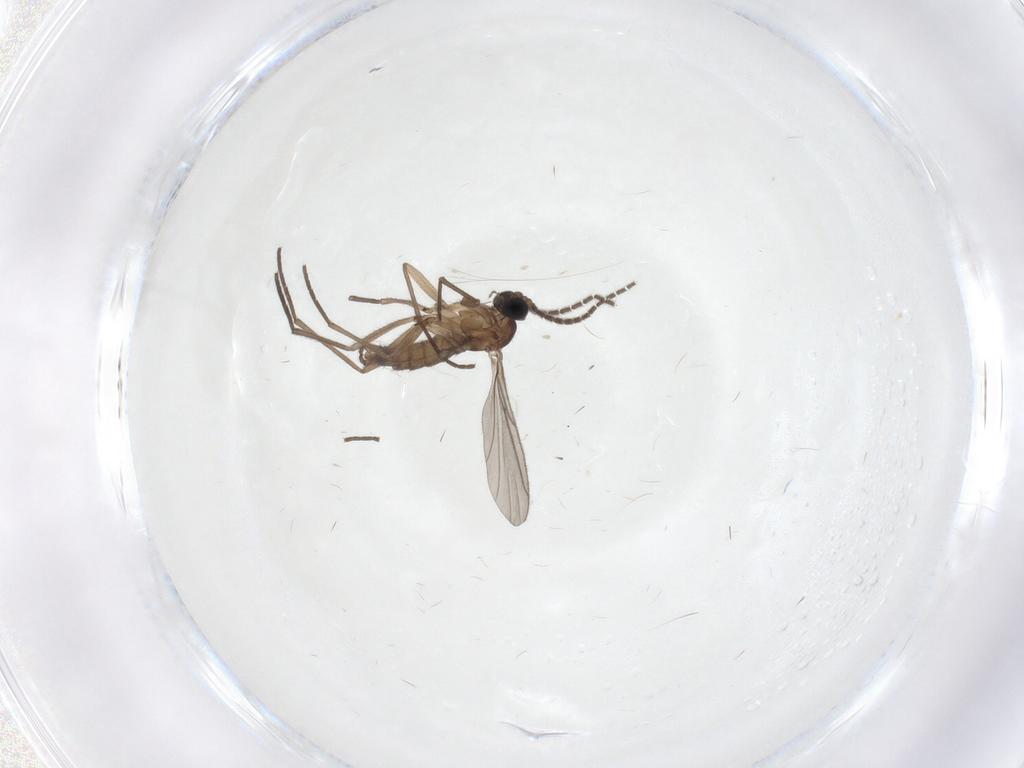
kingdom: Animalia
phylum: Arthropoda
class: Insecta
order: Diptera
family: Sciaridae
